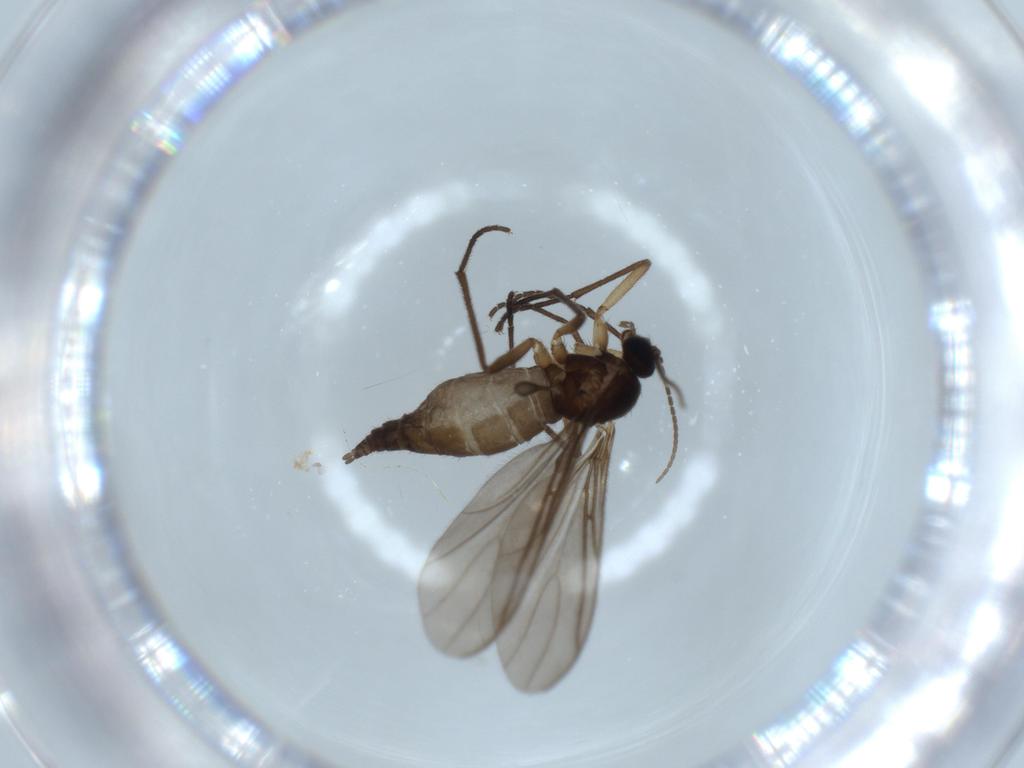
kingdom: Animalia
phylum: Arthropoda
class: Insecta
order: Diptera
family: Sciaridae
